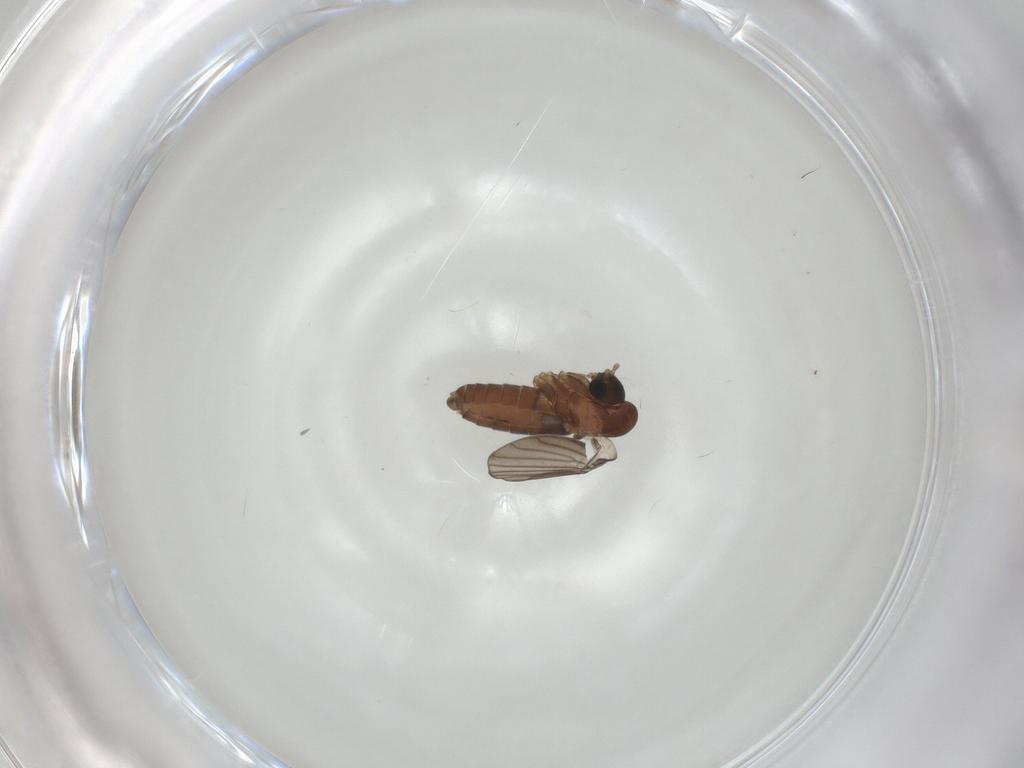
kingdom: Animalia
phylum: Arthropoda
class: Insecta
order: Diptera
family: Psychodidae
